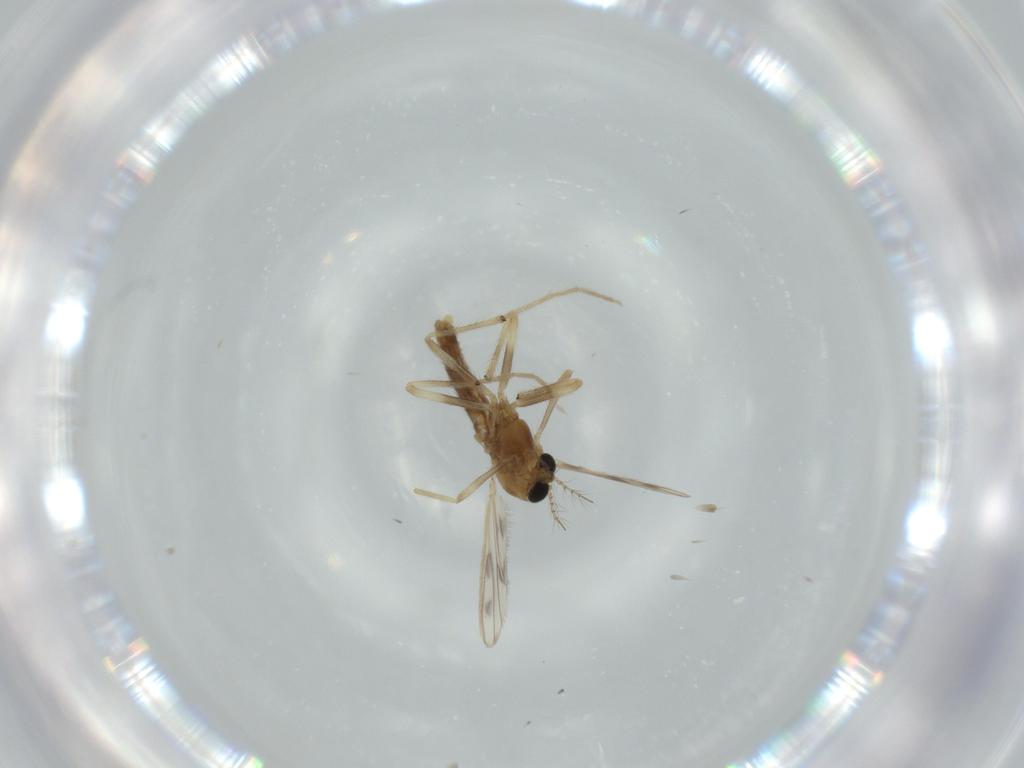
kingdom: Animalia
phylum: Arthropoda
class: Insecta
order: Diptera
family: Chironomidae
